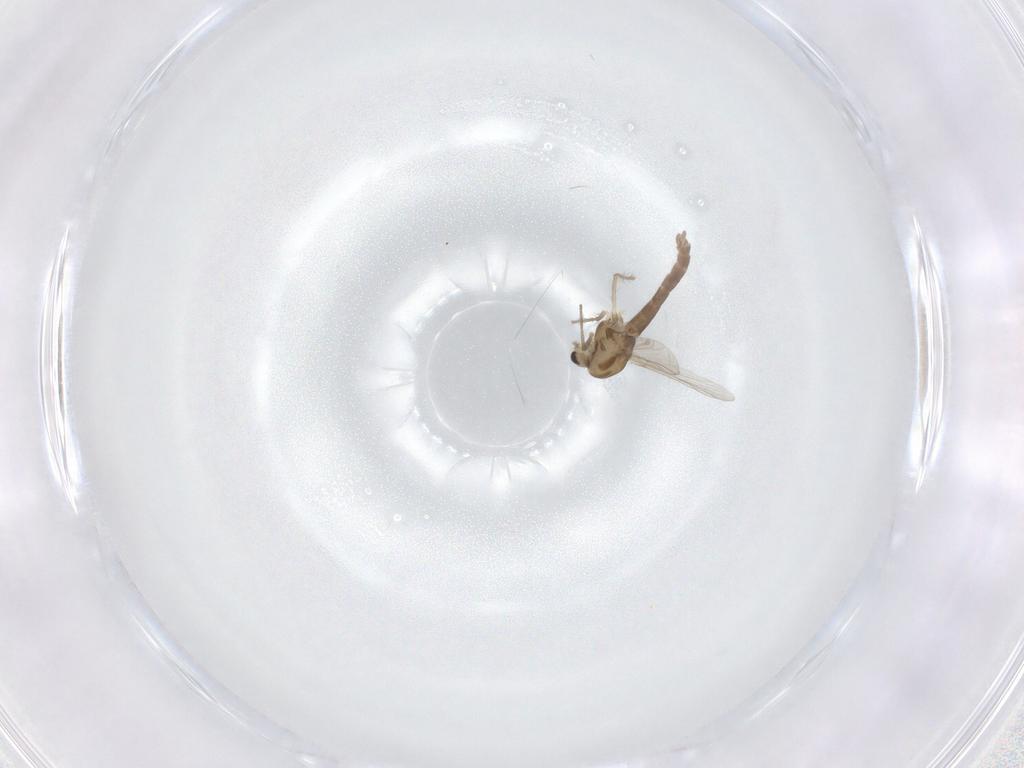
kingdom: Animalia
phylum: Arthropoda
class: Insecta
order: Diptera
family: Chironomidae
